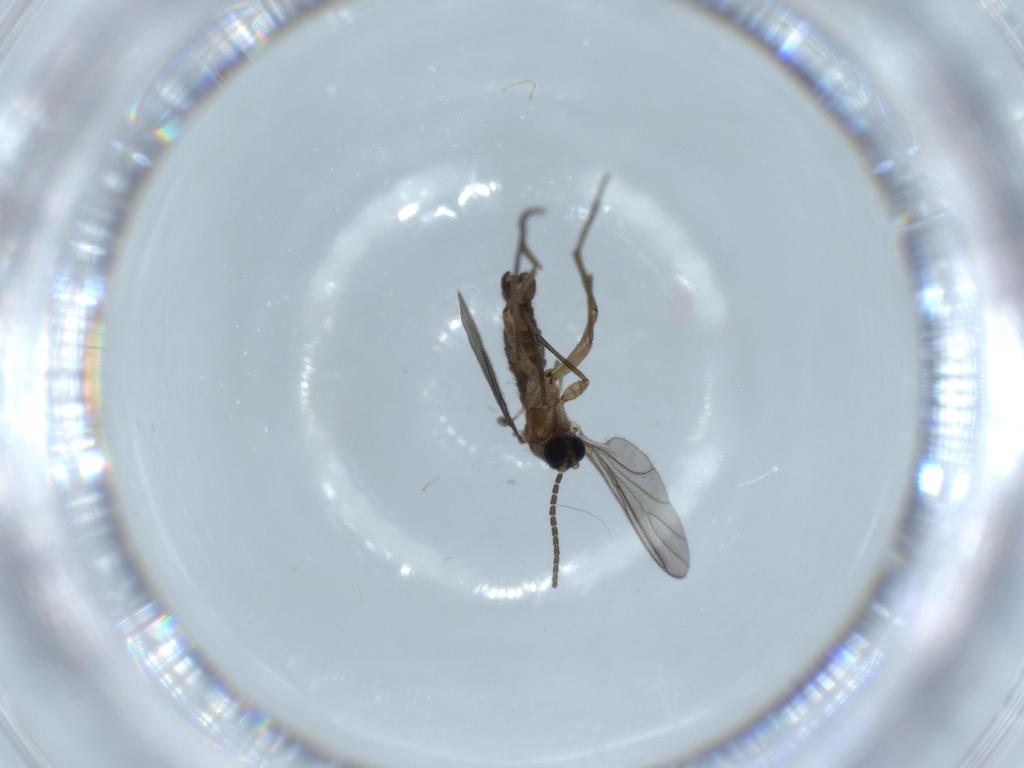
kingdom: Animalia
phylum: Arthropoda
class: Insecta
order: Diptera
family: Sciaridae
